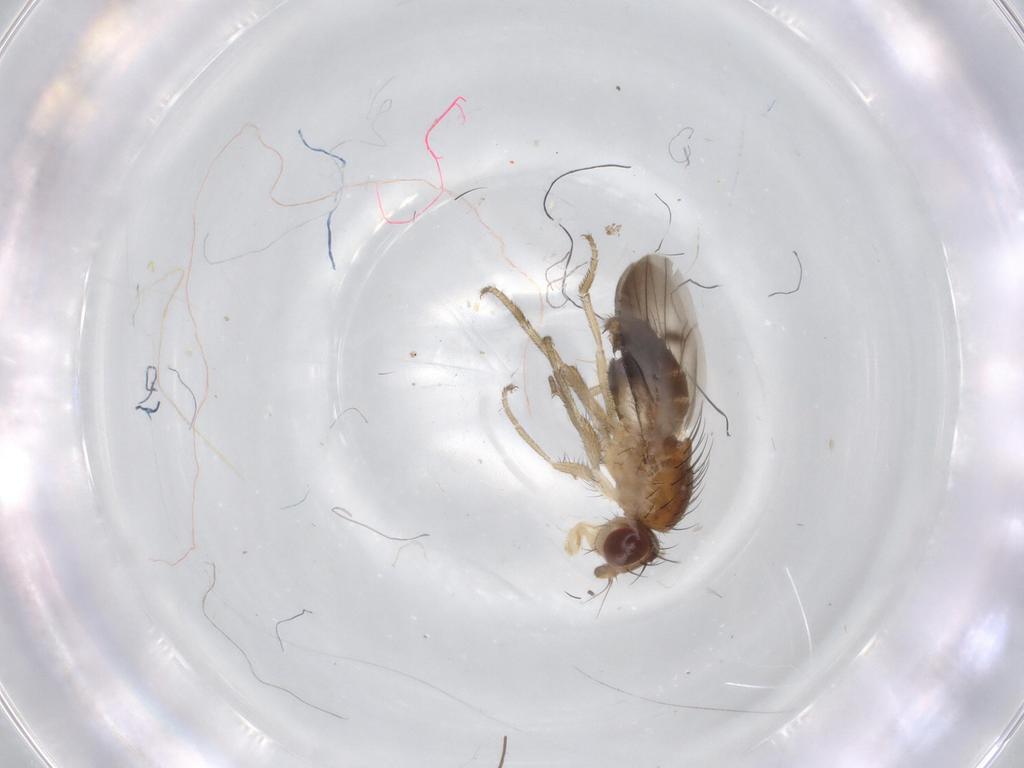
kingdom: Animalia
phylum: Arthropoda
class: Insecta
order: Diptera
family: Heleomyzidae
